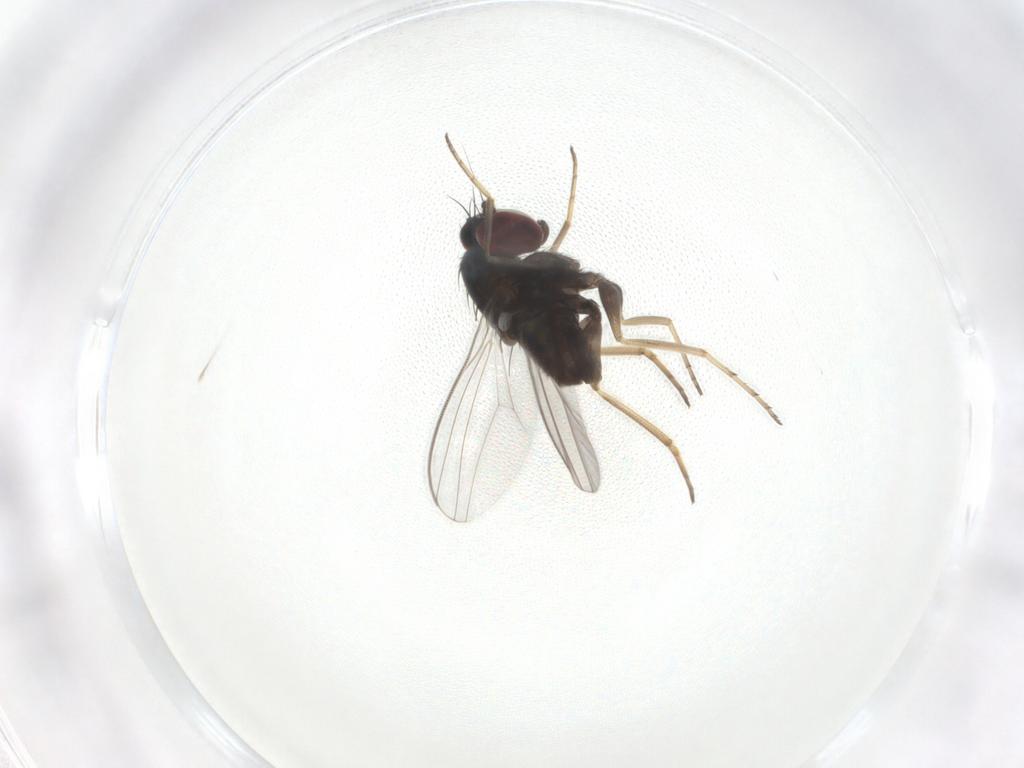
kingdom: Animalia
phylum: Arthropoda
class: Insecta
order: Diptera
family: Dolichopodidae
